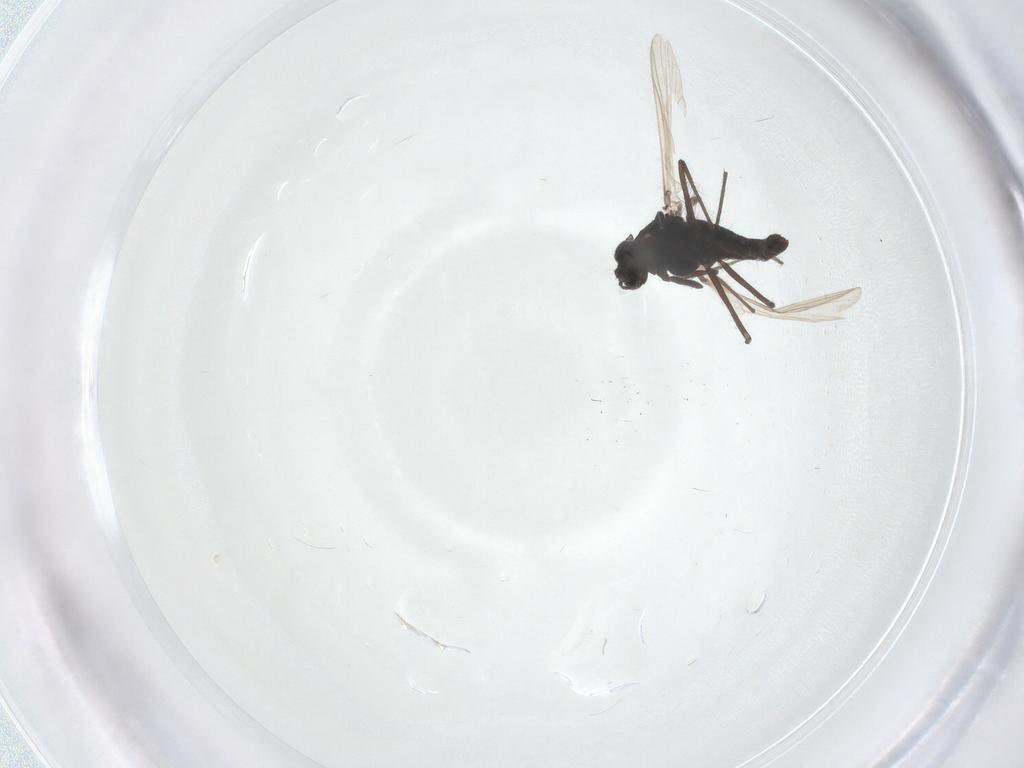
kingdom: Animalia
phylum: Arthropoda
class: Insecta
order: Diptera
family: Chironomidae
